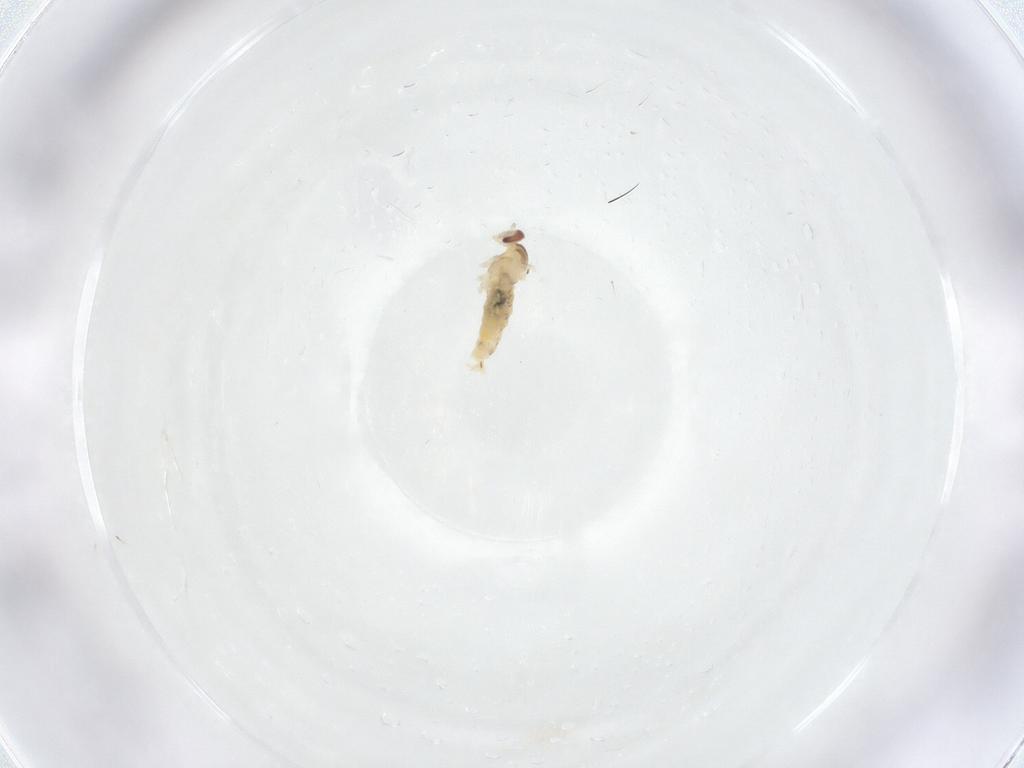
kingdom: Animalia
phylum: Arthropoda
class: Insecta
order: Diptera
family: Cecidomyiidae
